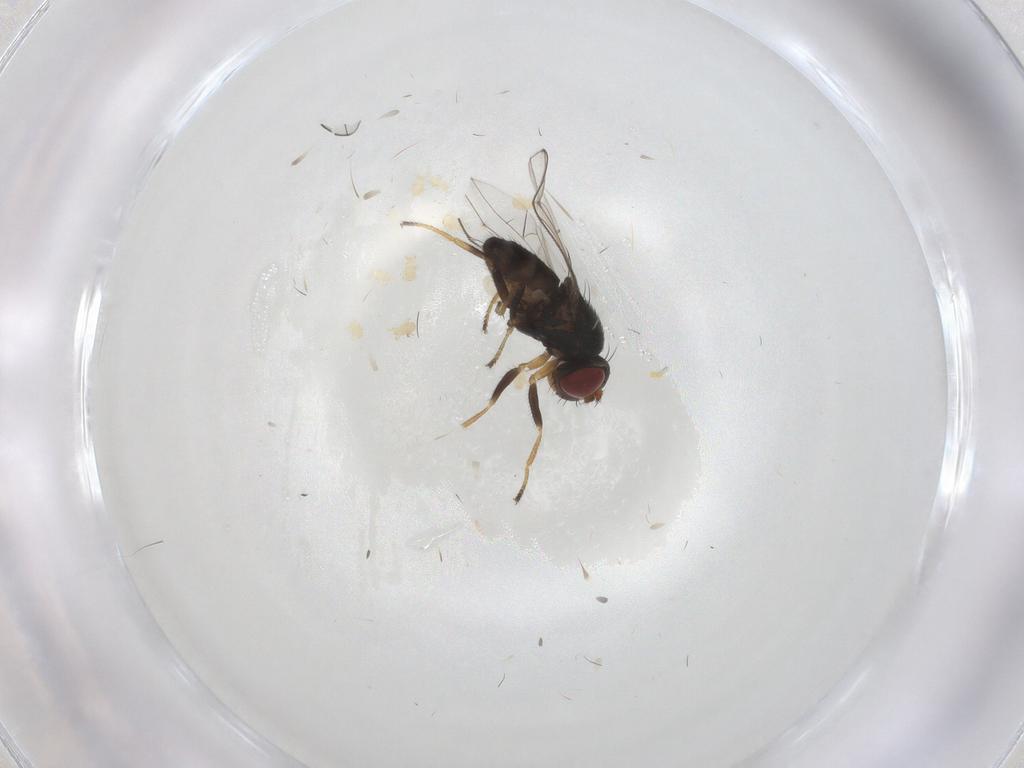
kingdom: Animalia
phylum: Arthropoda
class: Insecta
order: Diptera
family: Ephydridae
